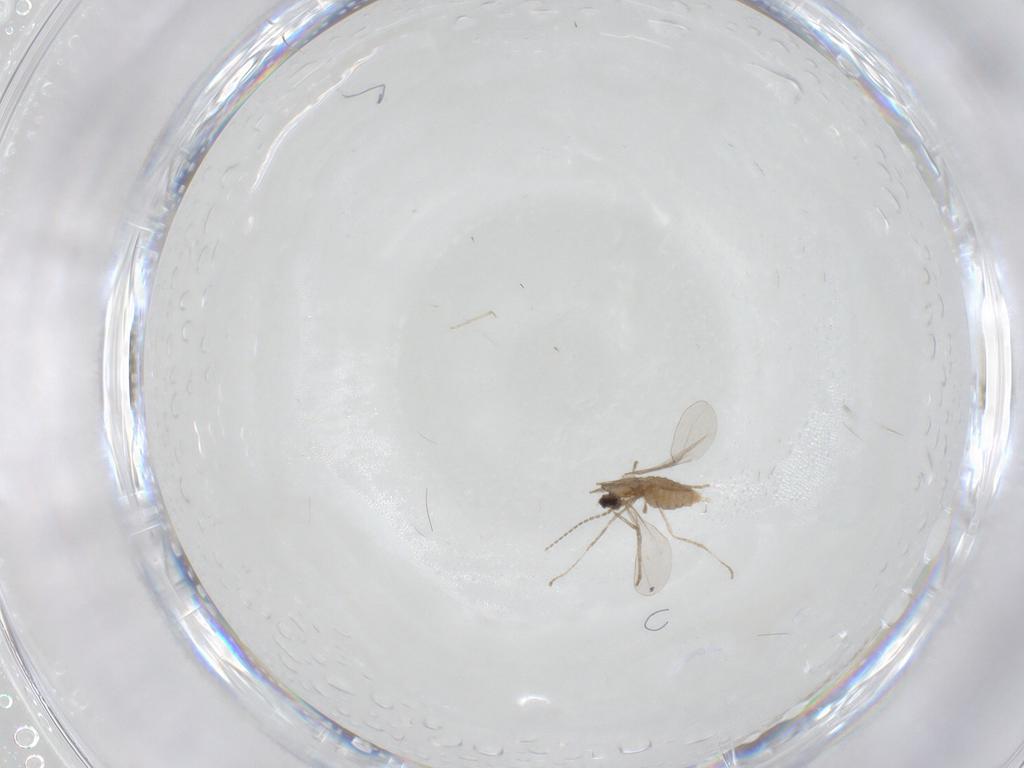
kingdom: Animalia
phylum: Arthropoda
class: Insecta
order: Diptera
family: Cecidomyiidae
